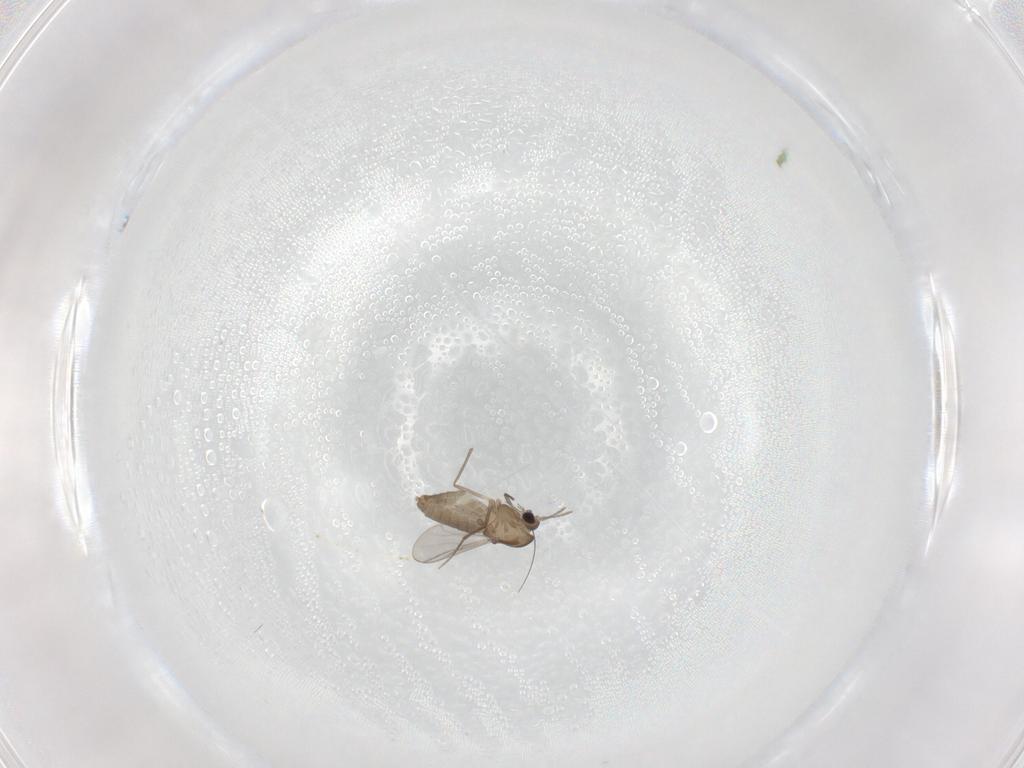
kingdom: Animalia
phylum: Arthropoda
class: Insecta
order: Diptera
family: Chironomidae
